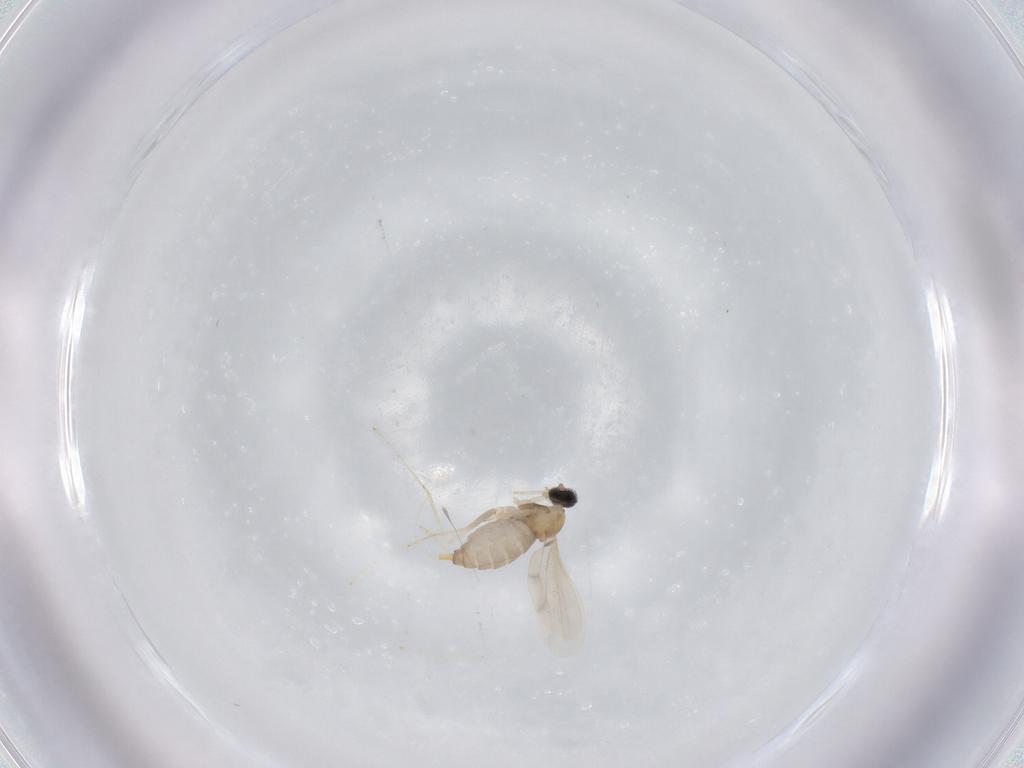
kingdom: Animalia
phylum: Arthropoda
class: Insecta
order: Diptera
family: Cecidomyiidae
